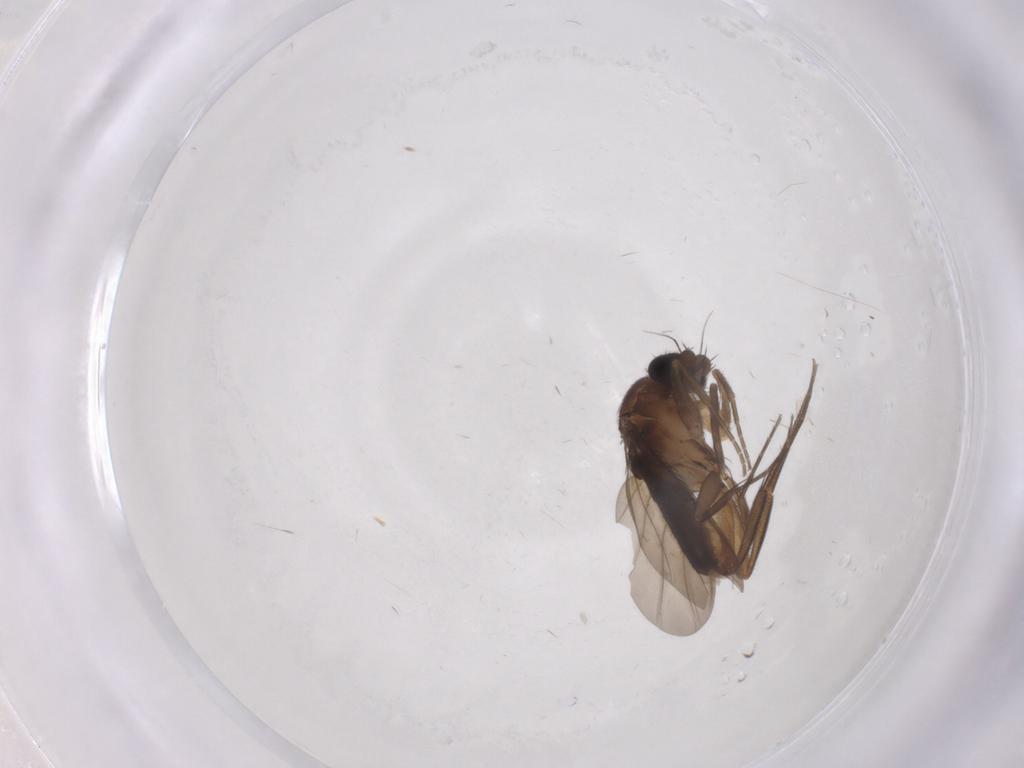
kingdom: Animalia
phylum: Arthropoda
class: Insecta
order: Diptera
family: Phoridae
